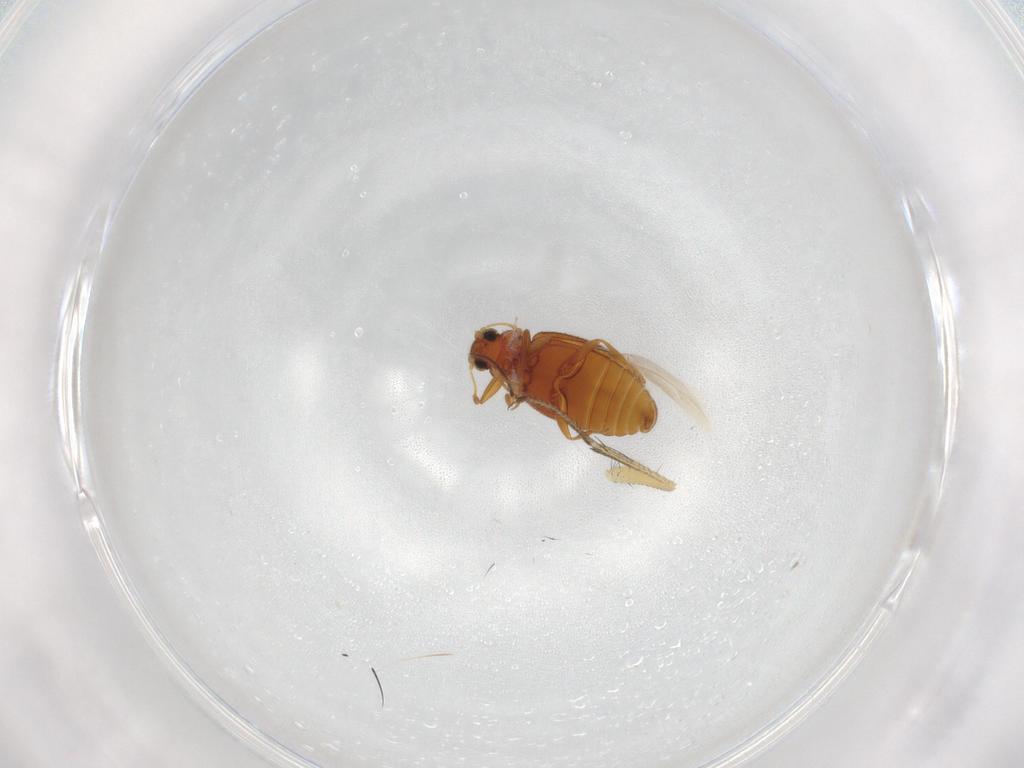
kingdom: Animalia
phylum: Arthropoda
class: Insecta
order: Coleoptera
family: Latridiidae
